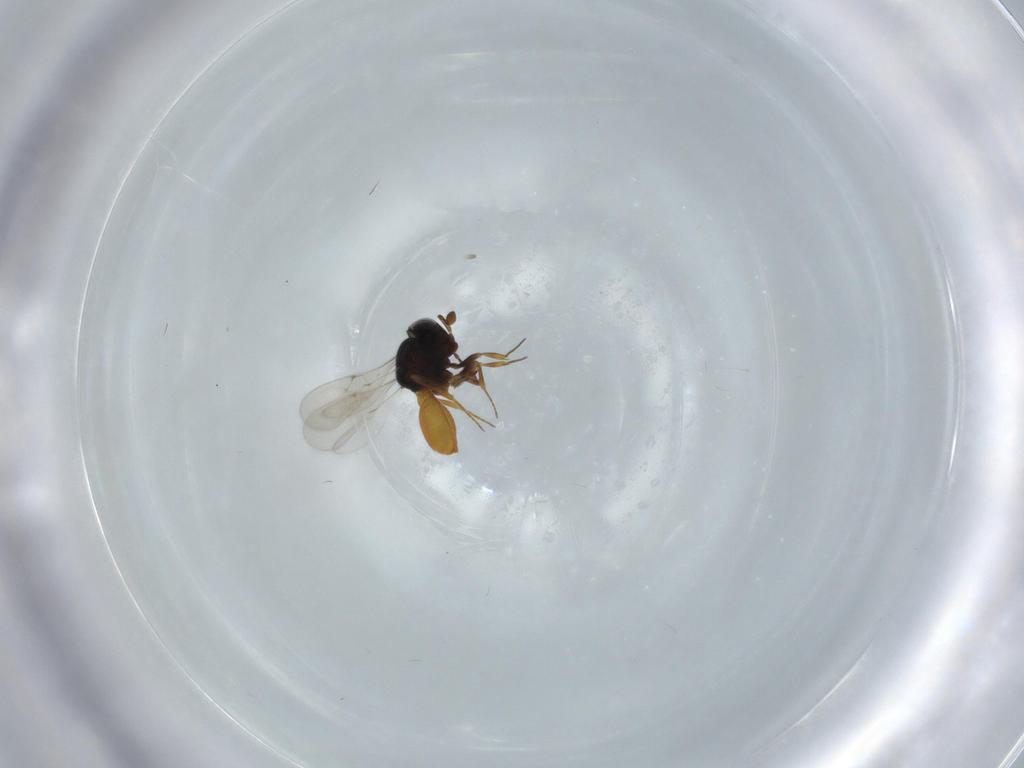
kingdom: Animalia
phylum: Arthropoda
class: Insecta
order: Hymenoptera
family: Scelionidae
